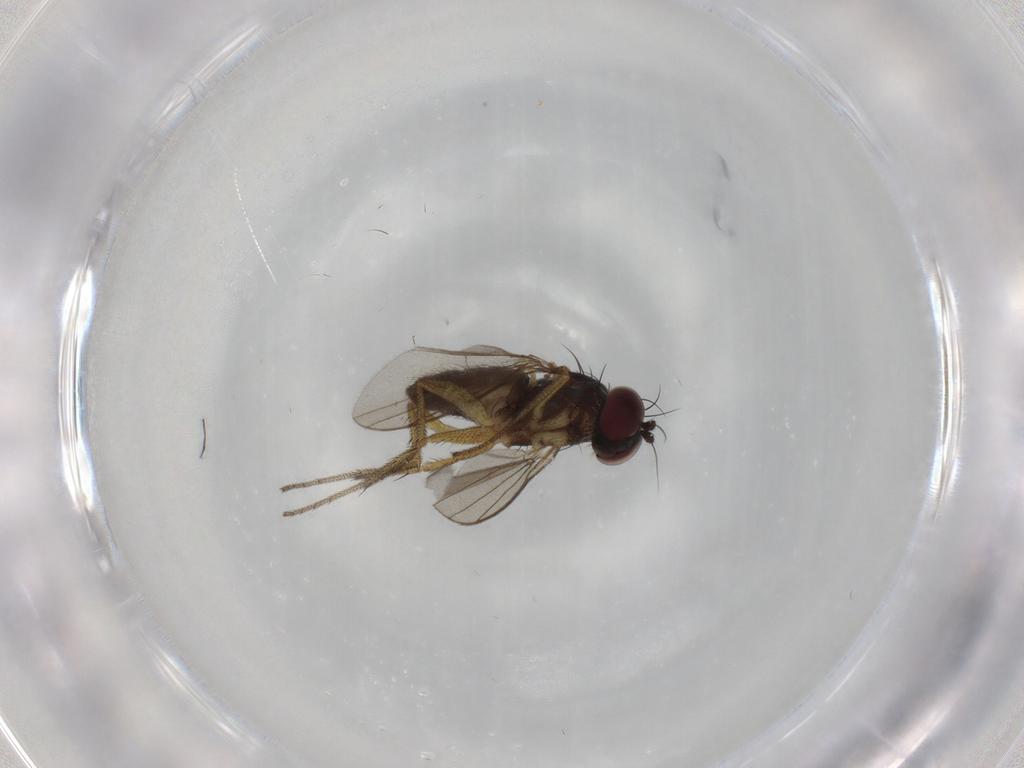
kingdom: Animalia
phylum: Arthropoda
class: Insecta
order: Diptera
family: Dolichopodidae
